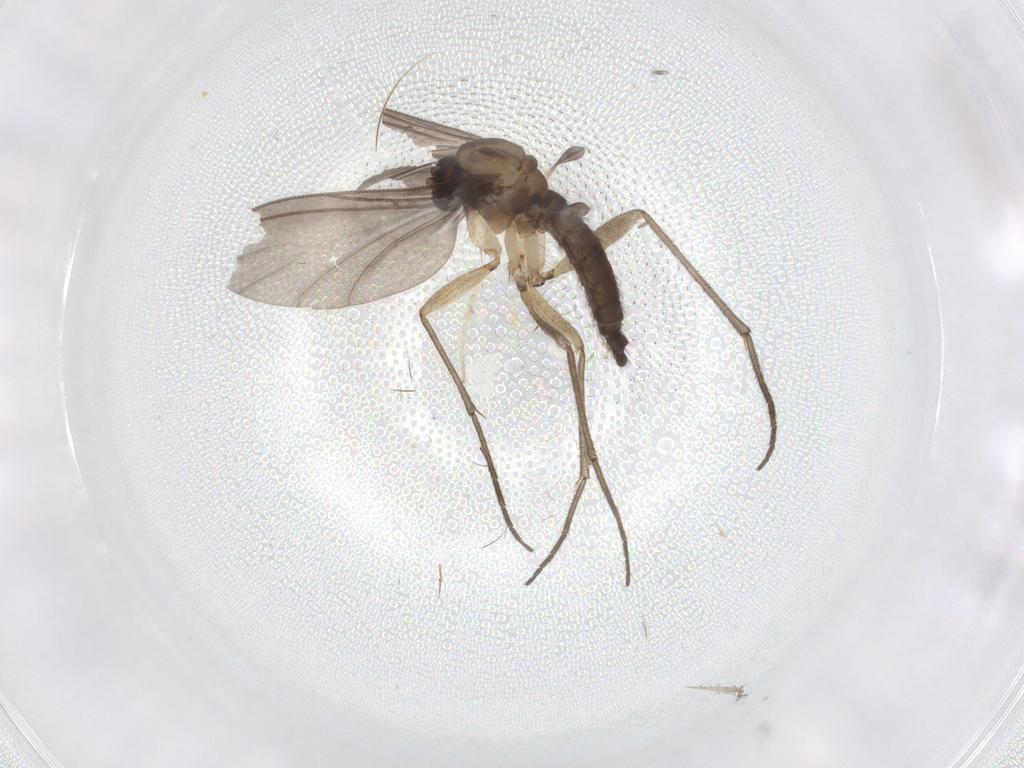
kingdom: Animalia
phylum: Arthropoda
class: Insecta
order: Diptera
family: Sciaridae
